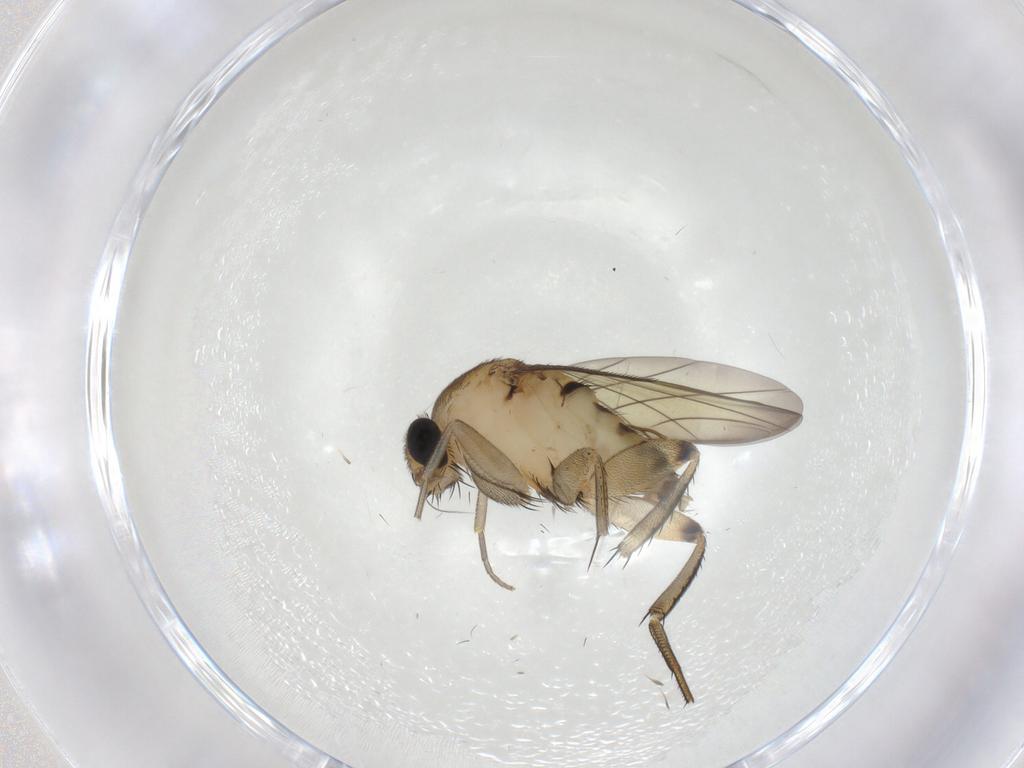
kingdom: Animalia
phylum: Arthropoda
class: Insecta
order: Diptera
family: Phoridae
